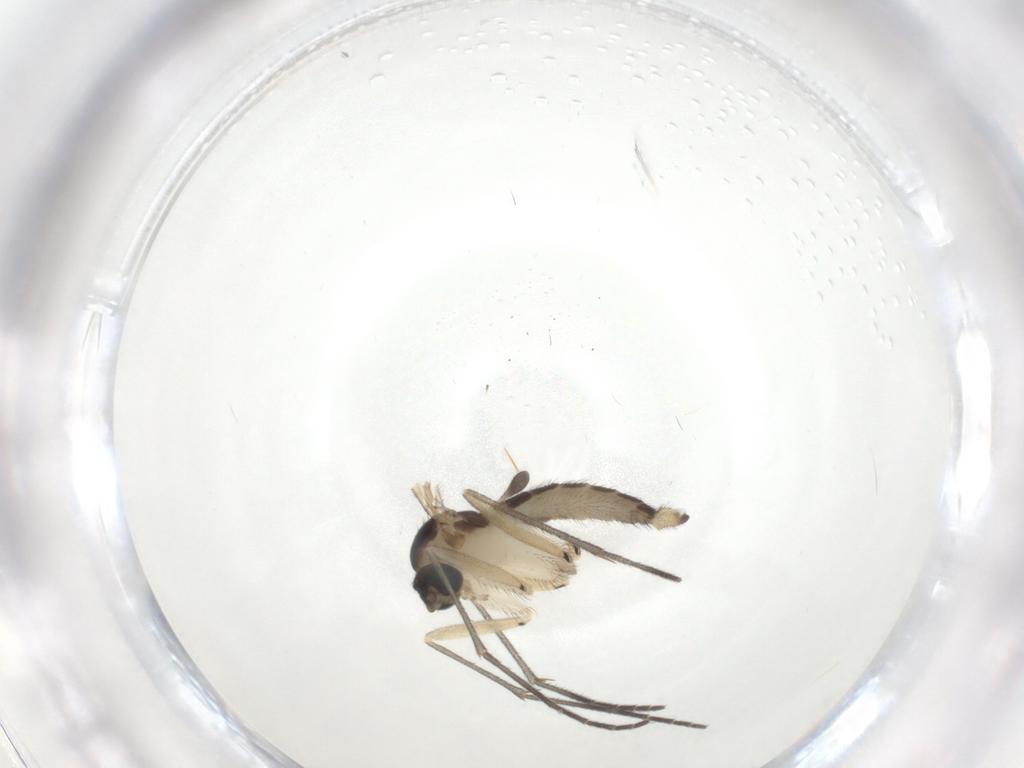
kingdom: Animalia
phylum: Arthropoda
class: Insecta
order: Diptera
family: Sciaridae
